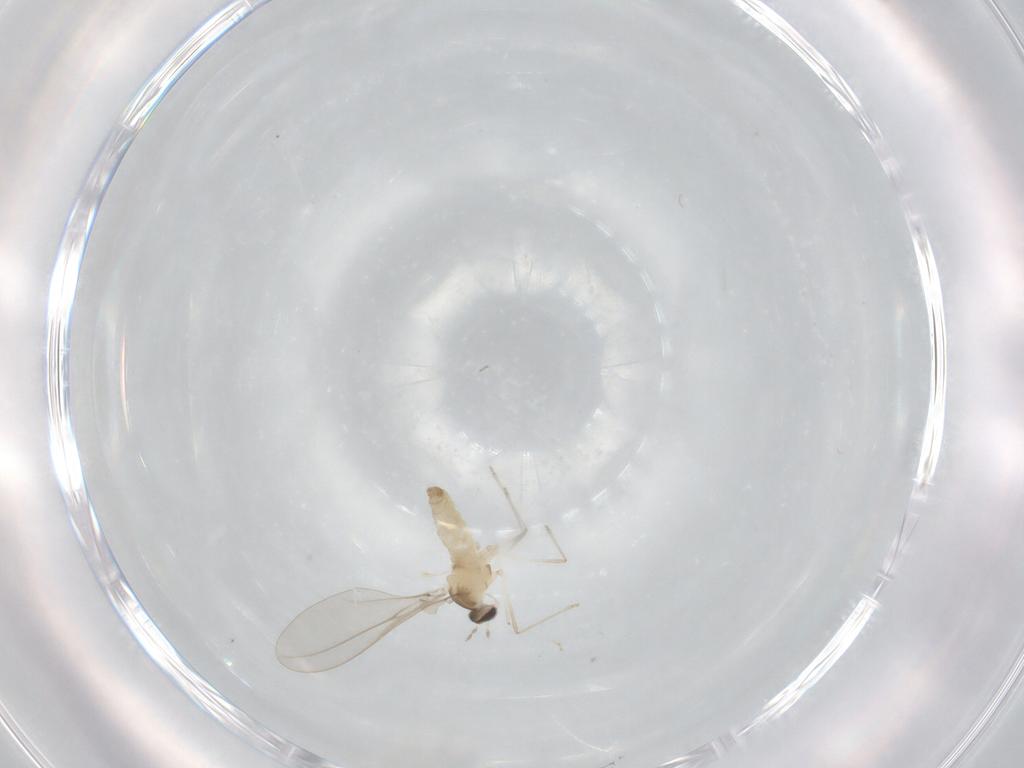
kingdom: Animalia
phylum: Arthropoda
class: Insecta
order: Diptera
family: Cecidomyiidae
